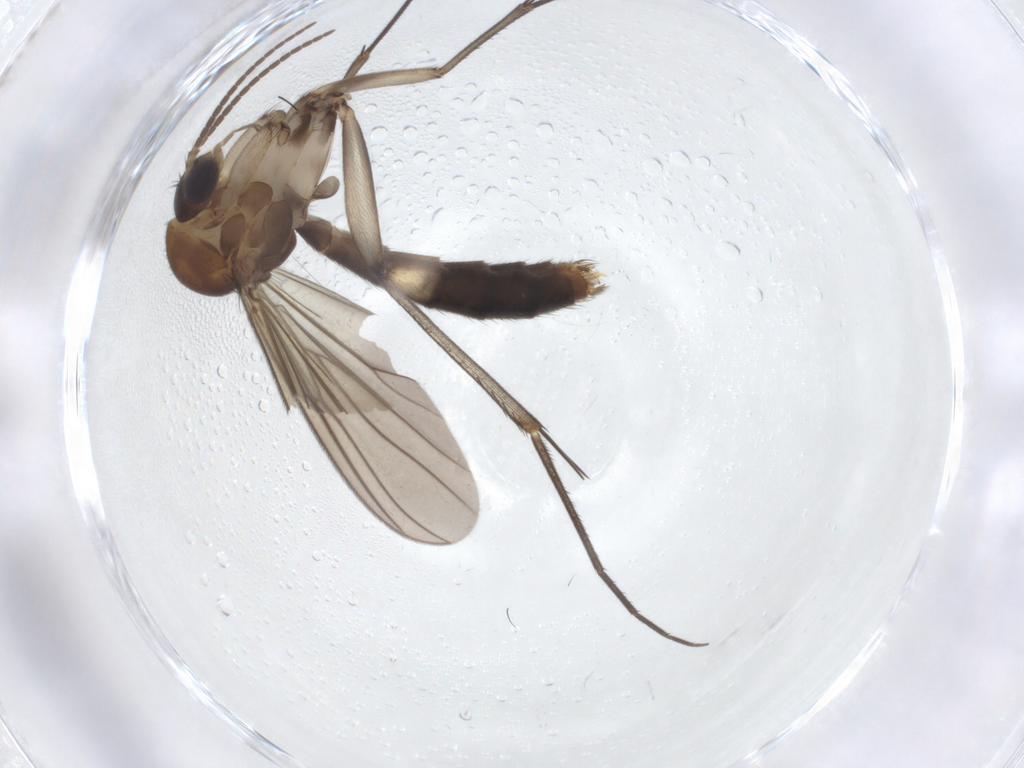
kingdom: Animalia
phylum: Arthropoda
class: Insecta
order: Diptera
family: Mycetophilidae
